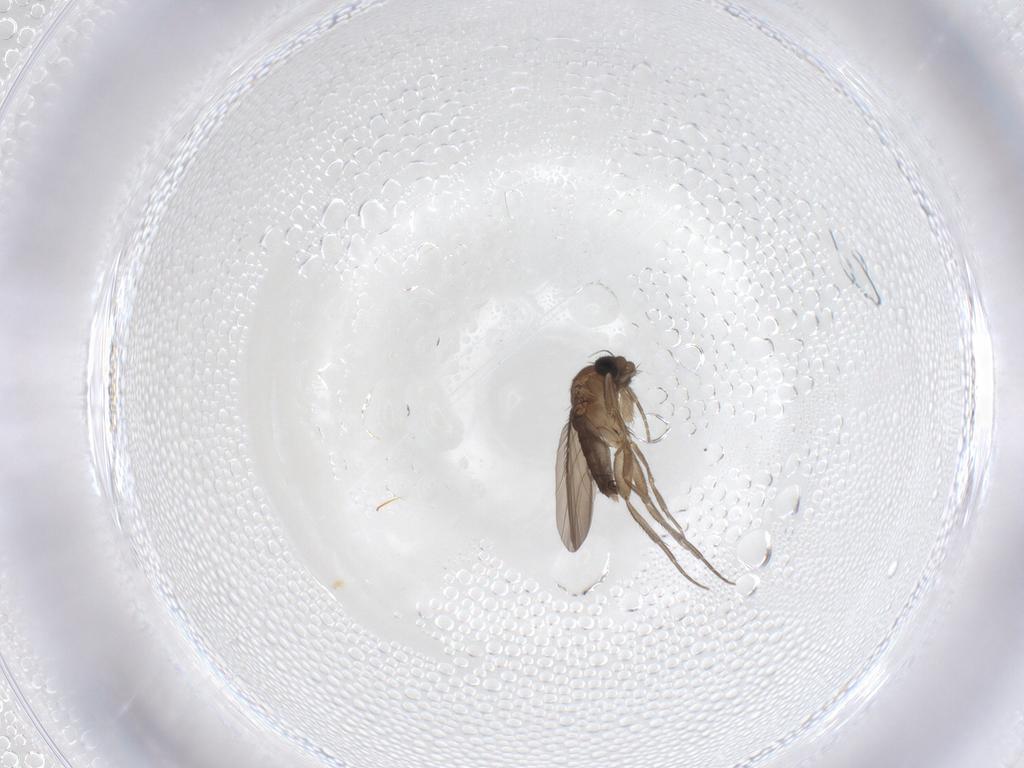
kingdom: Animalia
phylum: Arthropoda
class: Insecta
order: Diptera
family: Phoridae
